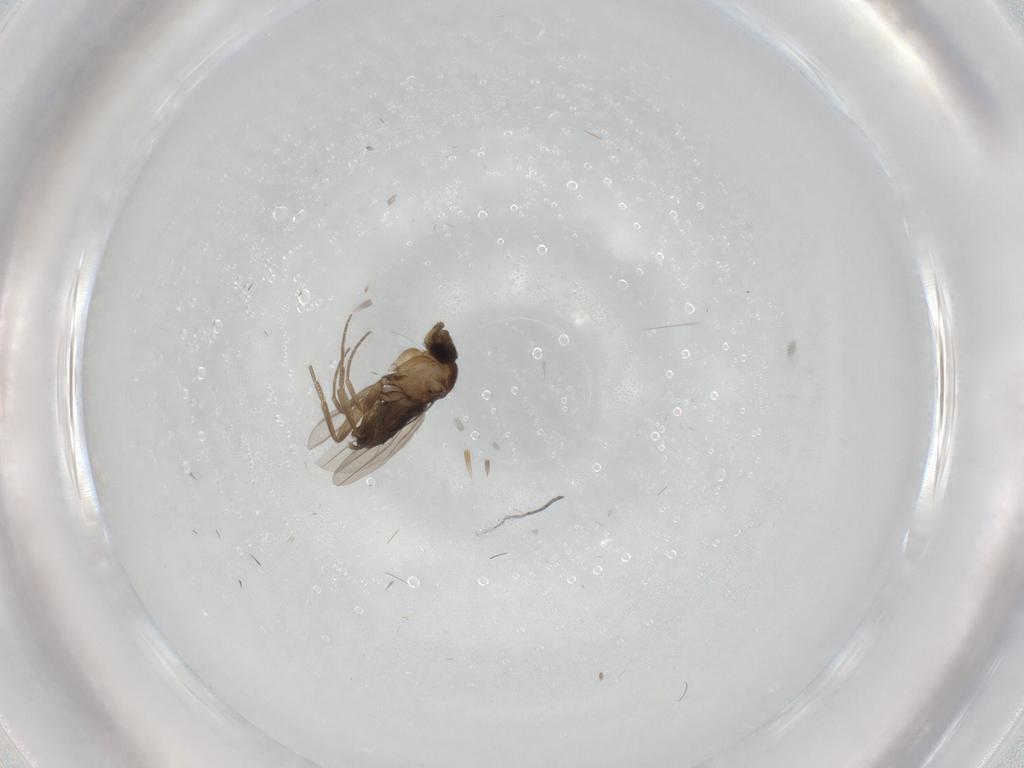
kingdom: Animalia
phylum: Arthropoda
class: Insecta
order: Diptera
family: Phoridae
